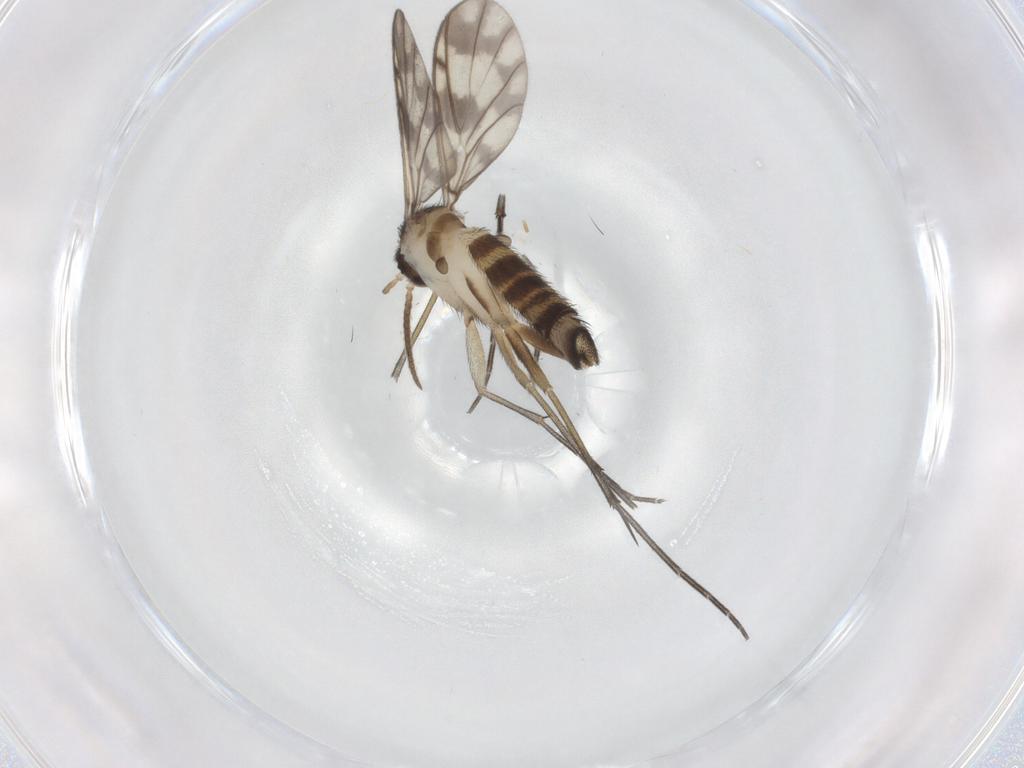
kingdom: Animalia
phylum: Arthropoda
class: Insecta
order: Diptera
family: Keroplatidae
